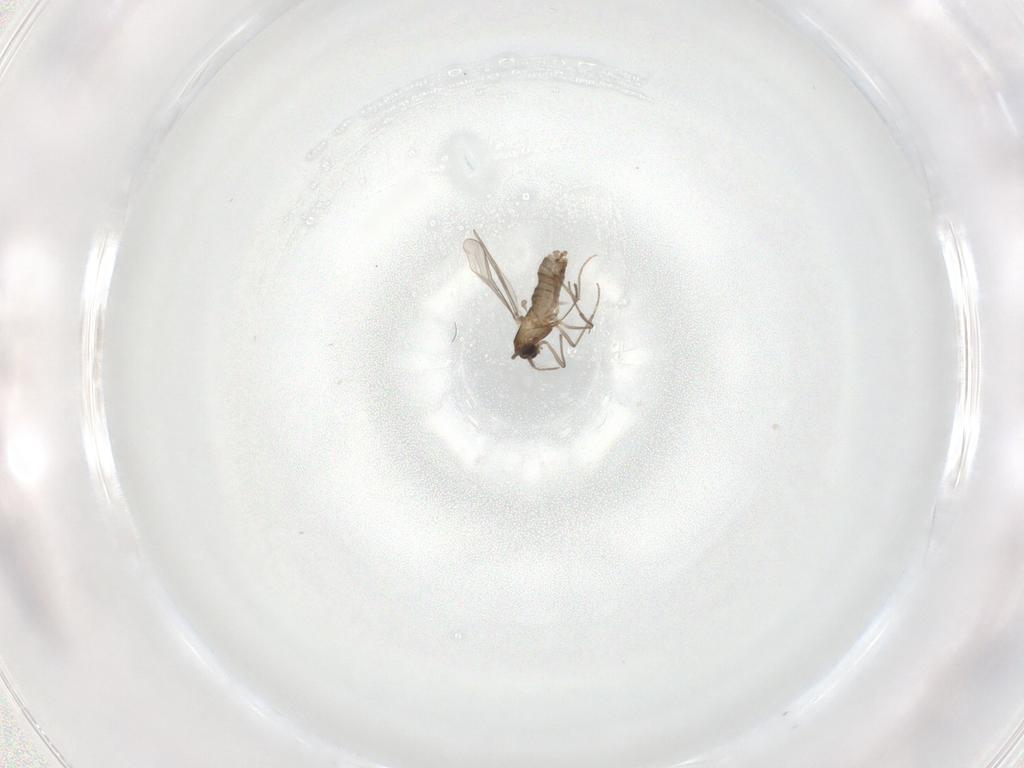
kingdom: Animalia
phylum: Arthropoda
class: Insecta
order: Diptera
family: Chironomidae
